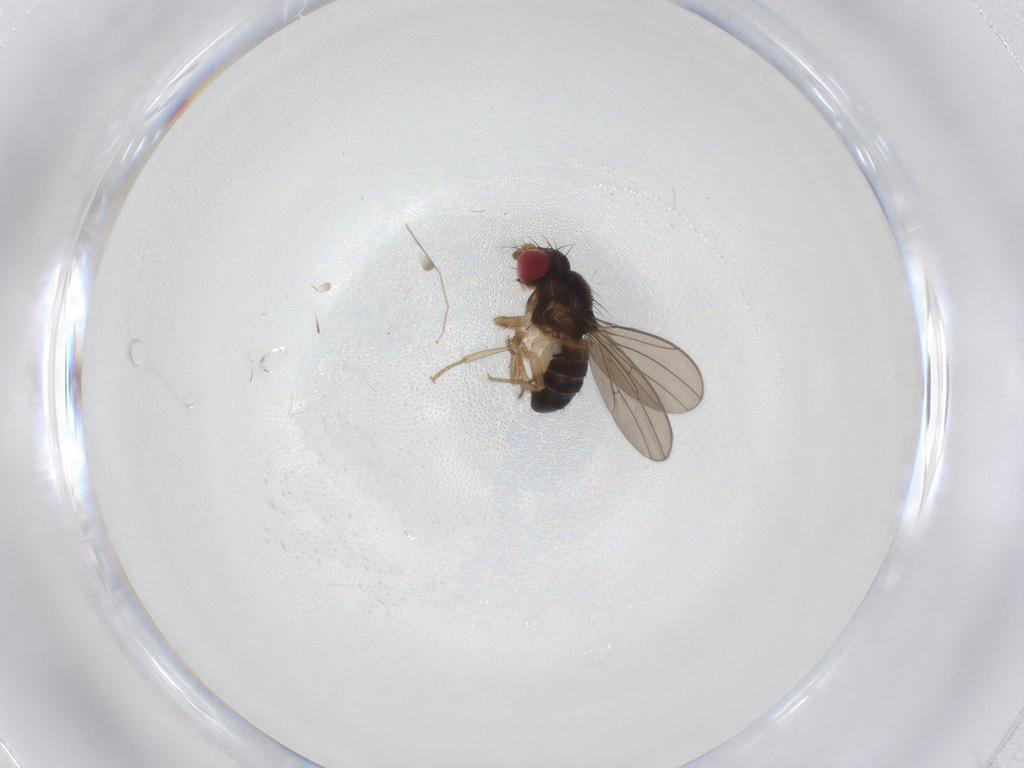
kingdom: Animalia
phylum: Arthropoda
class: Insecta
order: Diptera
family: Drosophilidae
